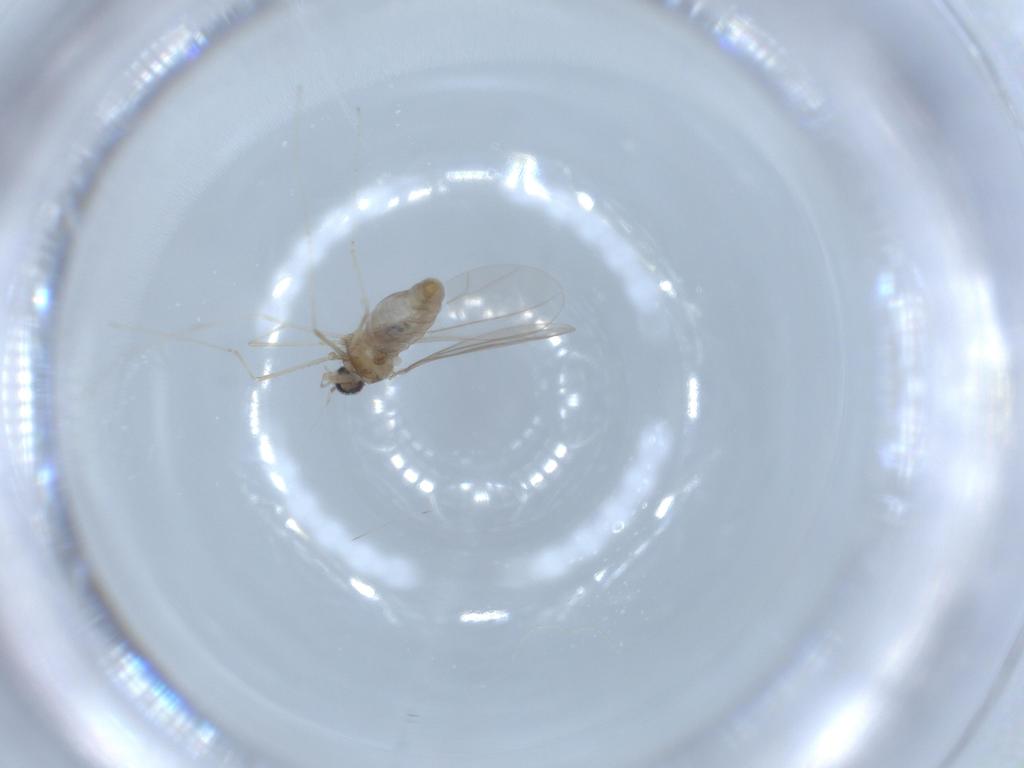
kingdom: Animalia
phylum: Arthropoda
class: Insecta
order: Diptera
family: Cecidomyiidae
